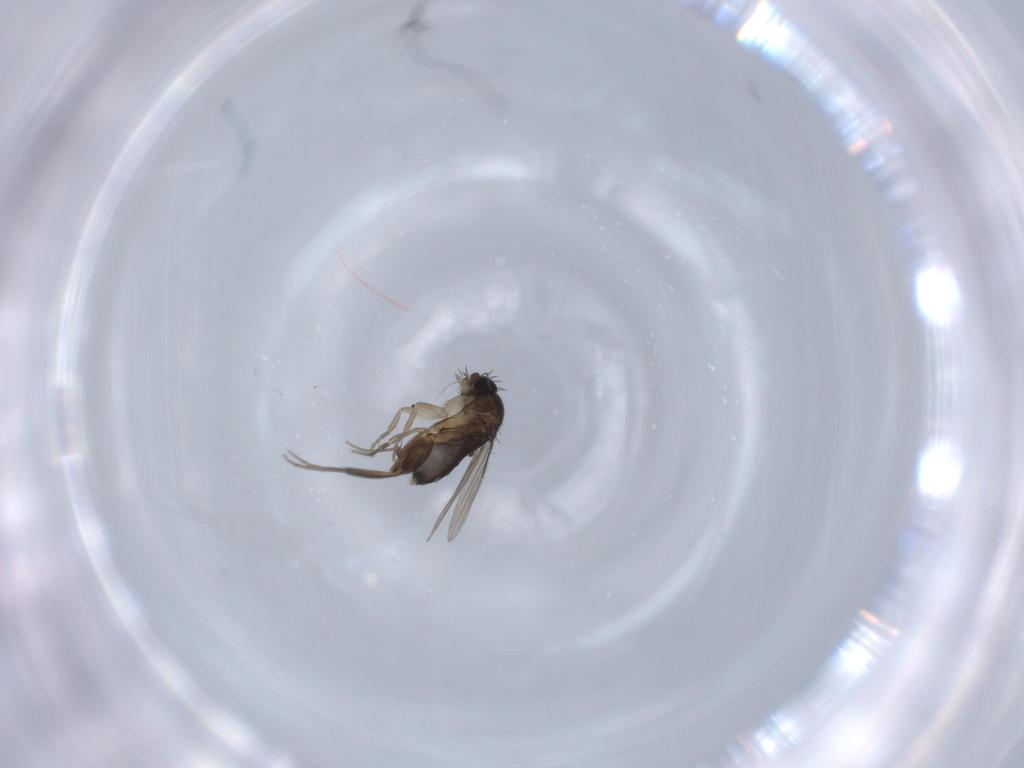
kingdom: Animalia
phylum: Arthropoda
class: Insecta
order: Diptera
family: Phoridae
